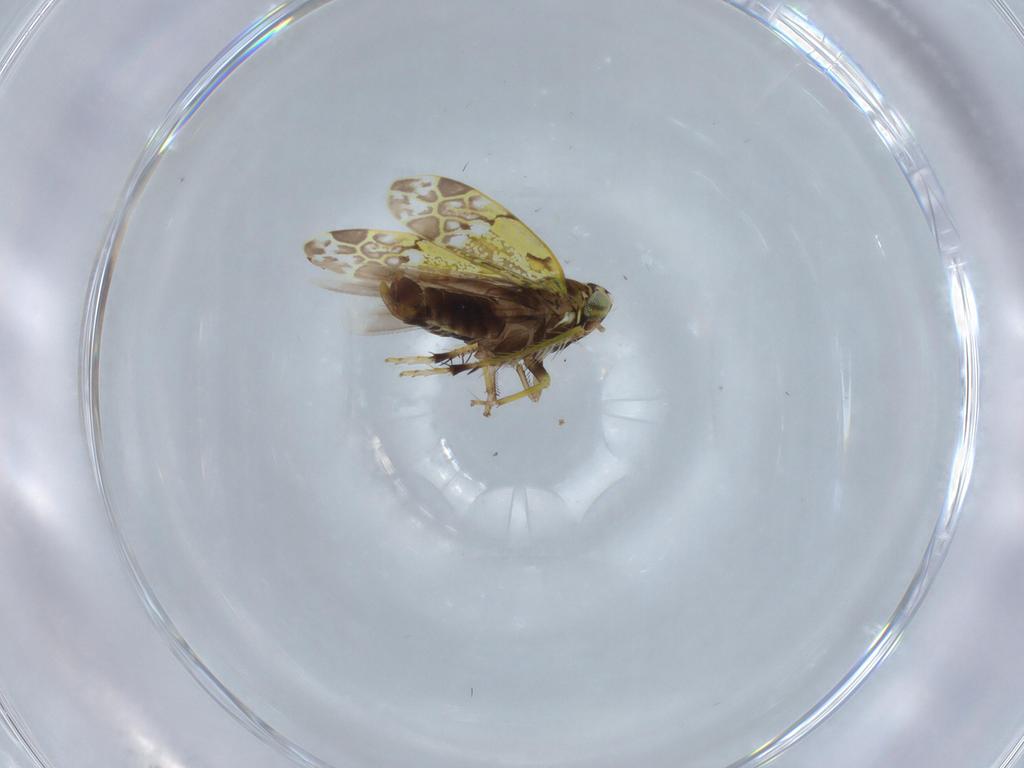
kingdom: Animalia
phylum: Arthropoda
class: Insecta
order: Hemiptera
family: Cicadellidae
